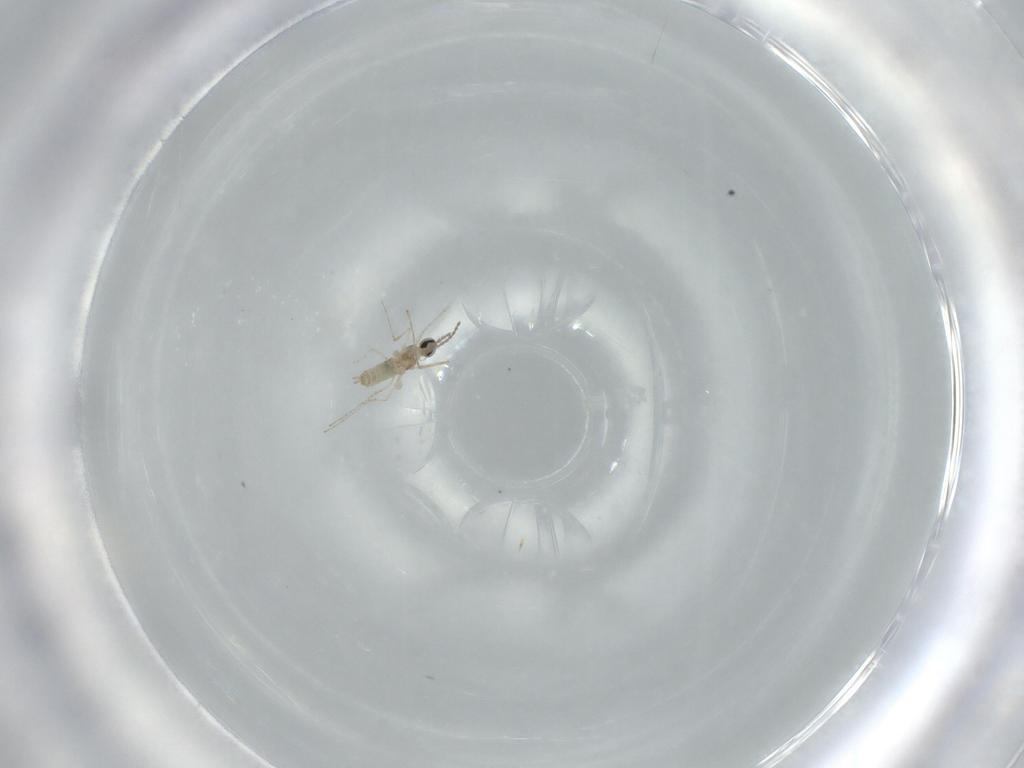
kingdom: Animalia
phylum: Arthropoda
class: Insecta
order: Diptera
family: Cecidomyiidae
